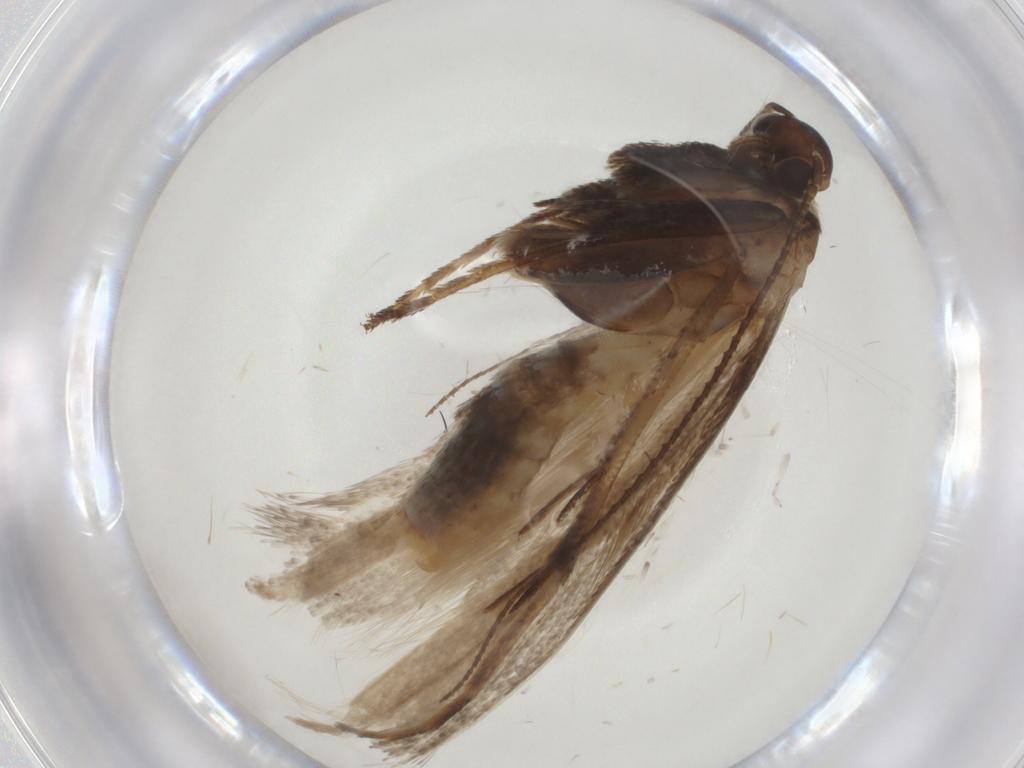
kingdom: Animalia
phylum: Arthropoda
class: Insecta
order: Lepidoptera
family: Gelechiidae
